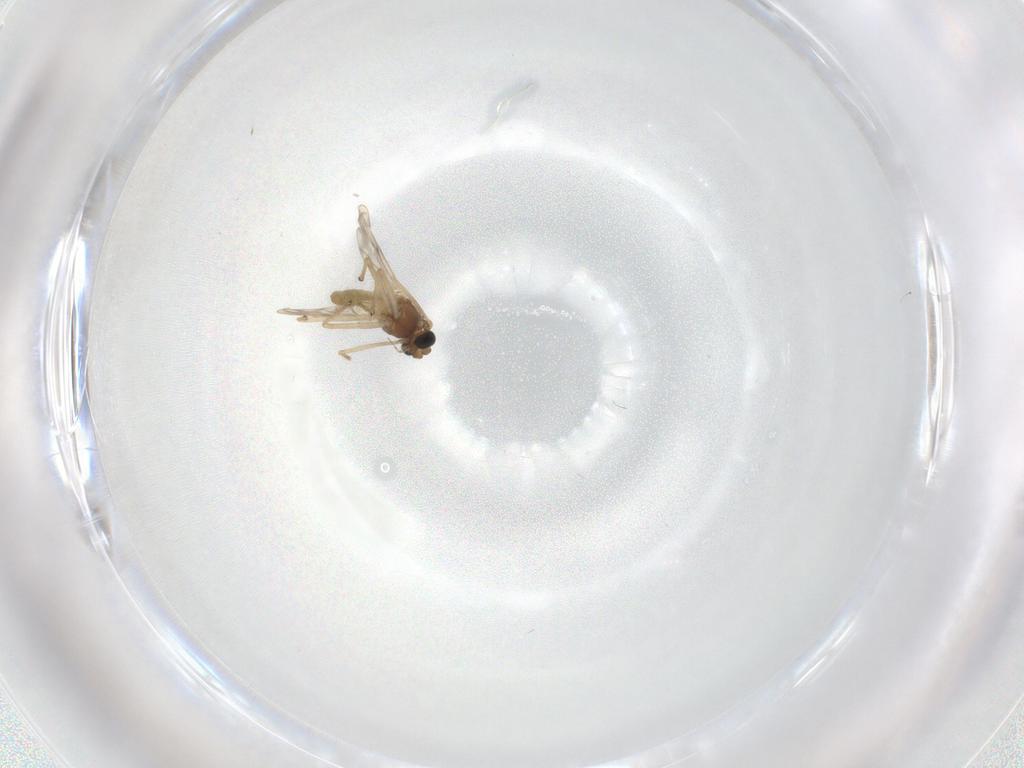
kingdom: Animalia
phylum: Arthropoda
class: Insecta
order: Diptera
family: Chironomidae
